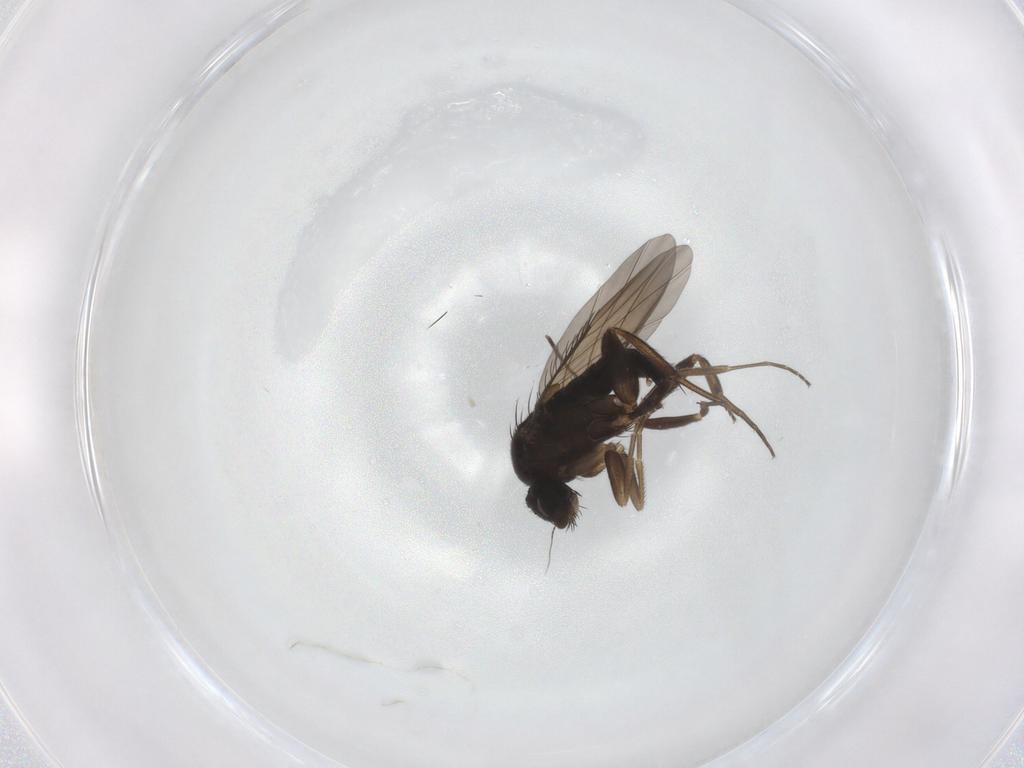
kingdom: Animalia
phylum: Arthropoda
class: Insecta
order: Diptera
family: Phoridae
